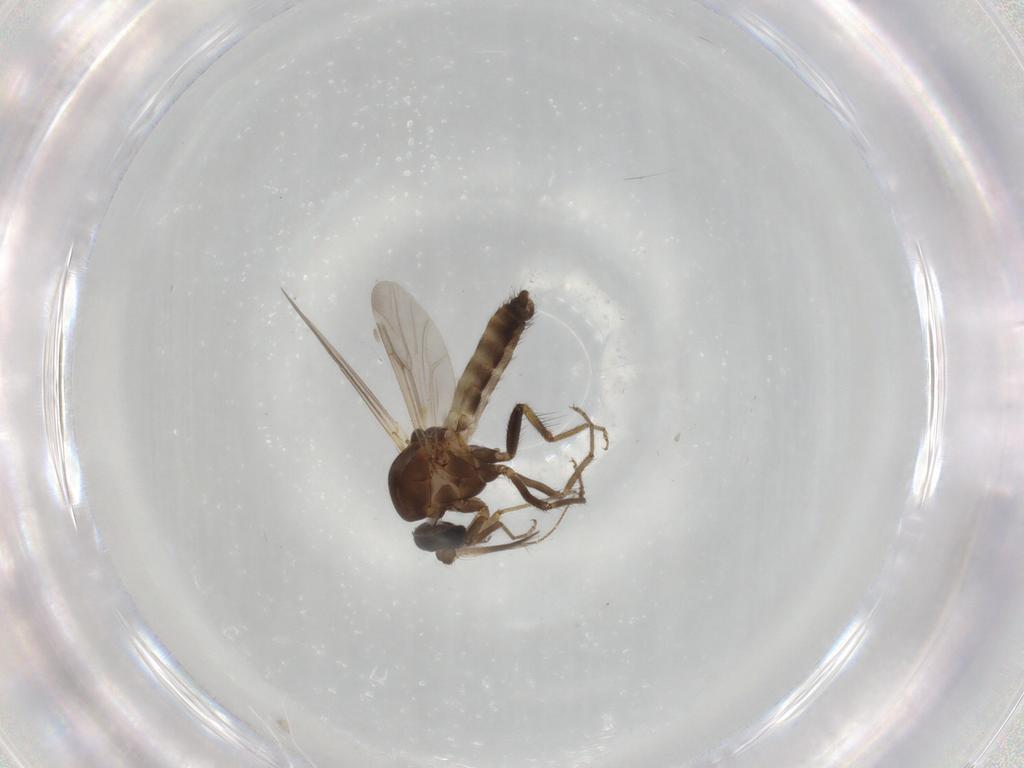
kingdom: Animalia
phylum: Arthropoda
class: Insecta
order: Diptera
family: Ceratopogonidae
